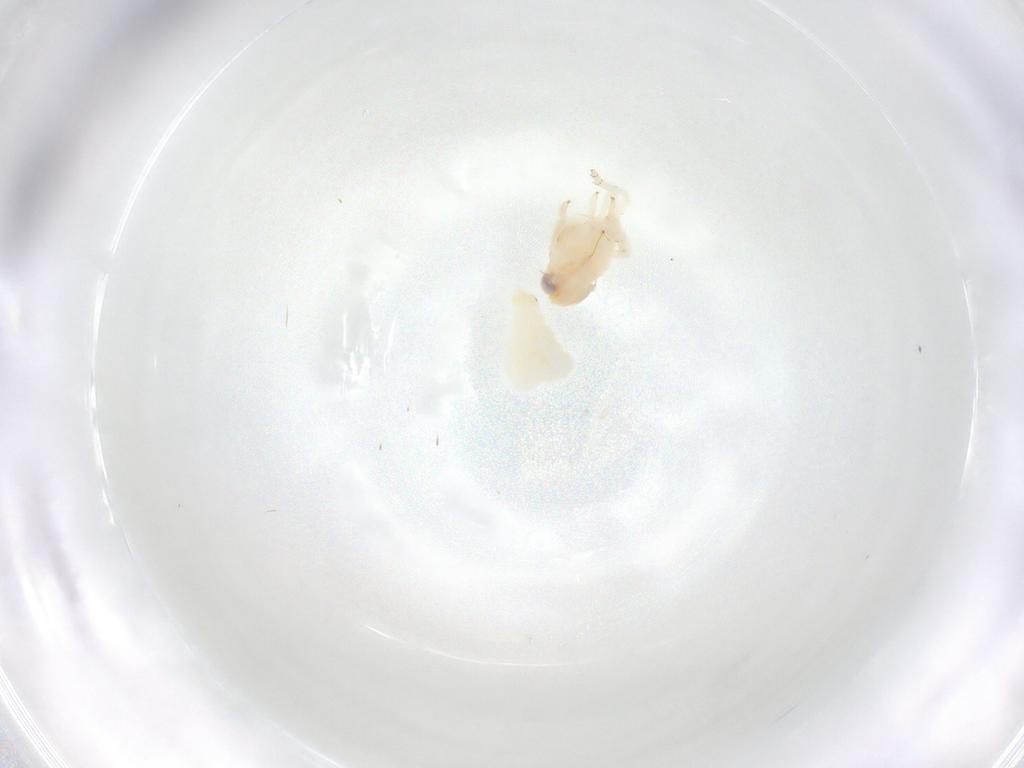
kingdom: Animalia
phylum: Arthropoda
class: Insecta
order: Hemiptera
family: Nogodinidae
